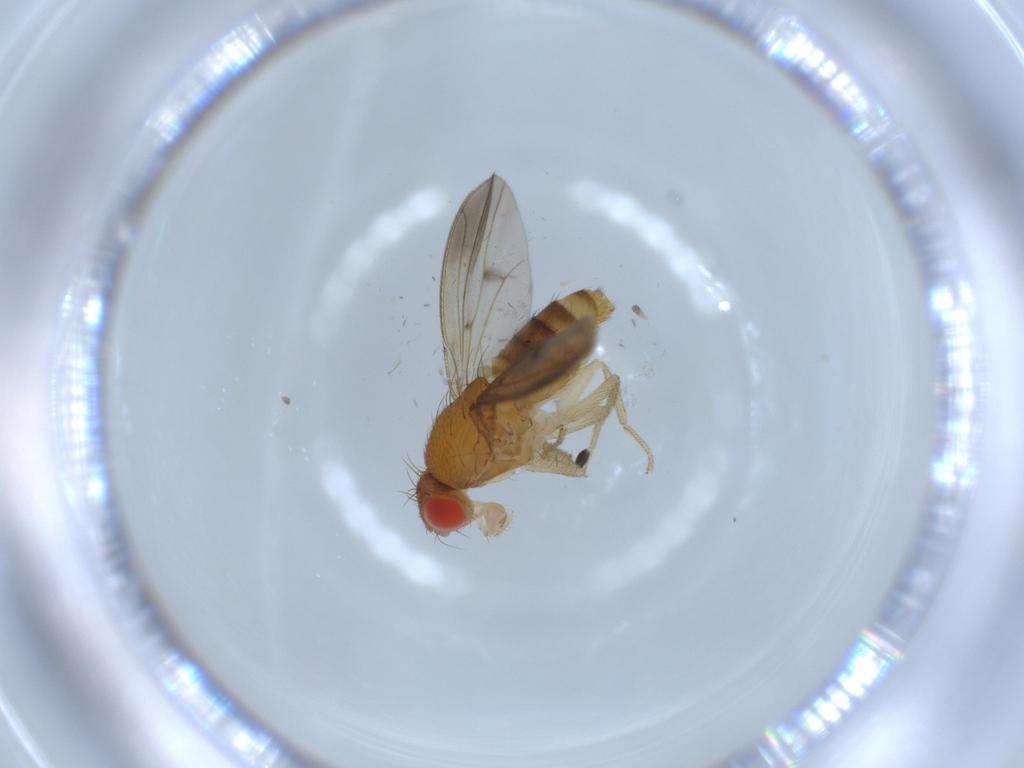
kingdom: Animalia
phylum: Arthropoda
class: Insecta
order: Diptera
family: Drosophilidae
